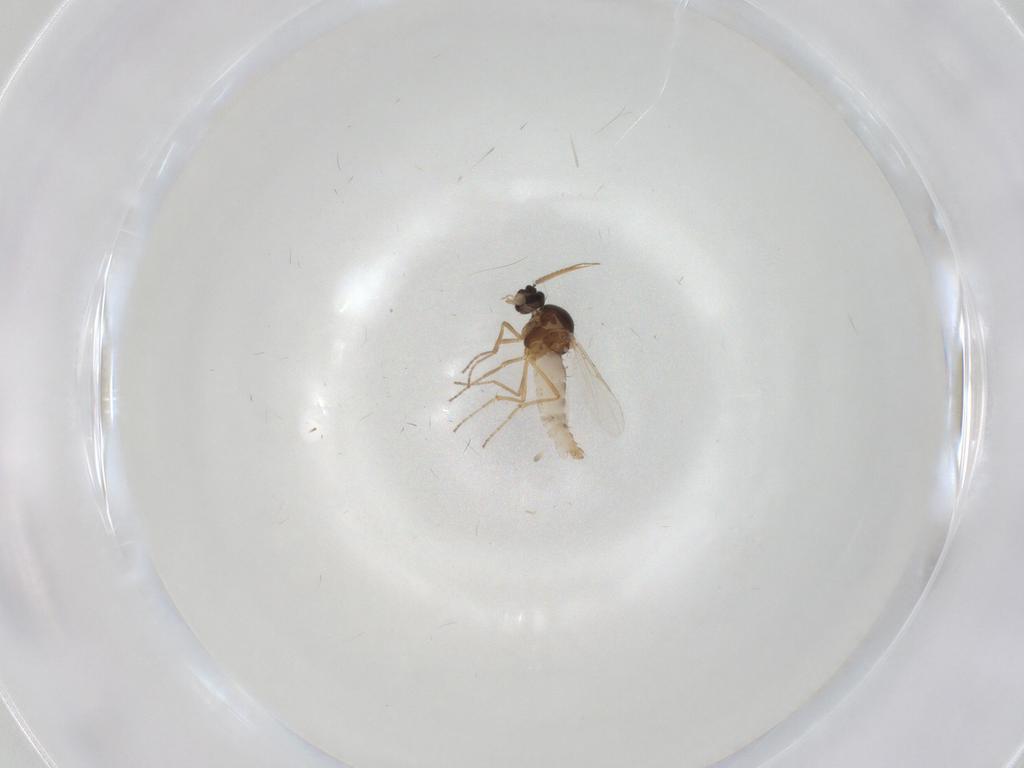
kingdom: Animalia
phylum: Arthropoda
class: Insecta
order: Diptera
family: Chironomidae
